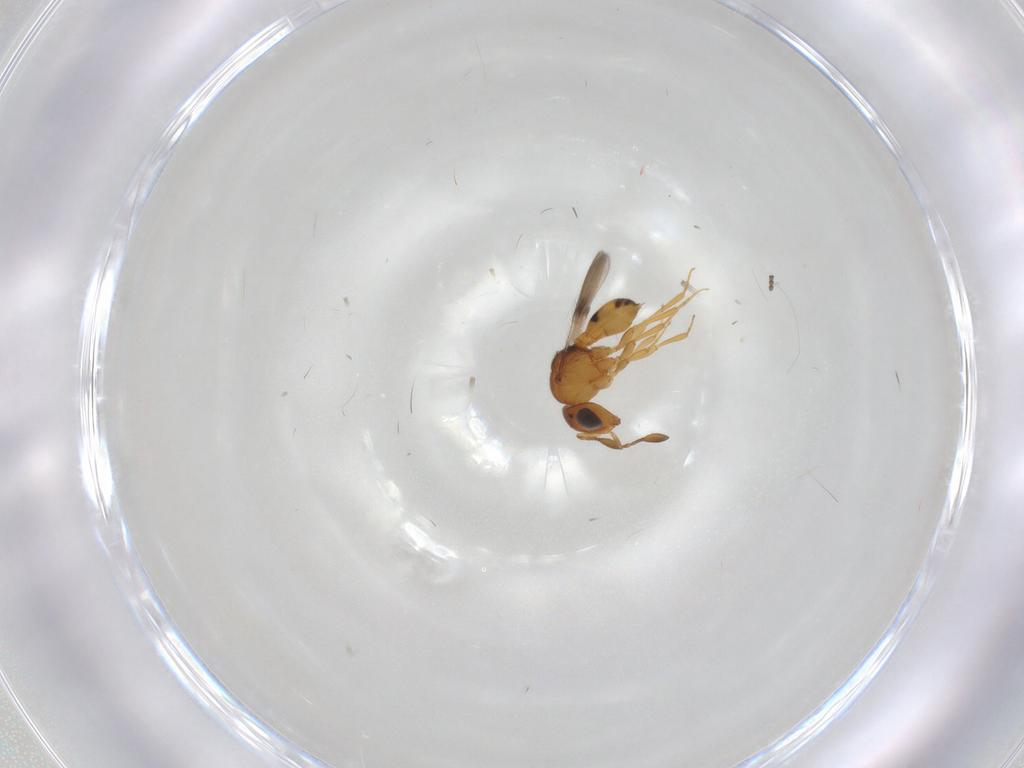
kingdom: Animalia
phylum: Arthropoda
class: Insecta
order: Hymenoptera
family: Scelionidae
